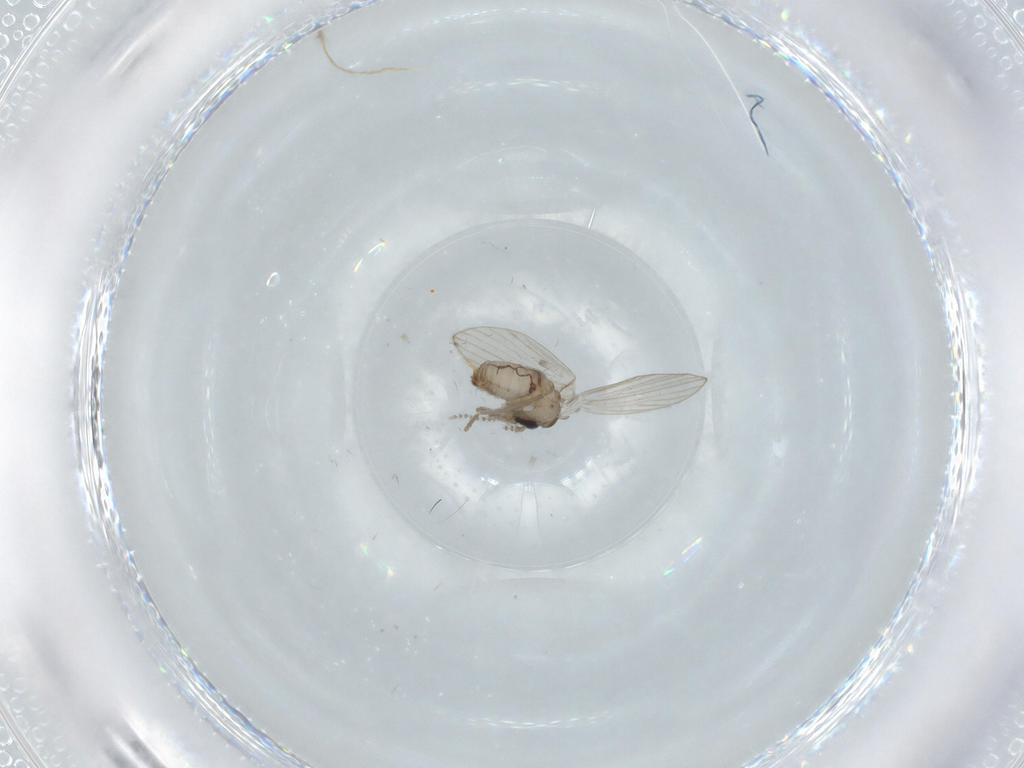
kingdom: Animalia
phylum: Arthropoda
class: Insecta
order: Diptera
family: Psychodidae
